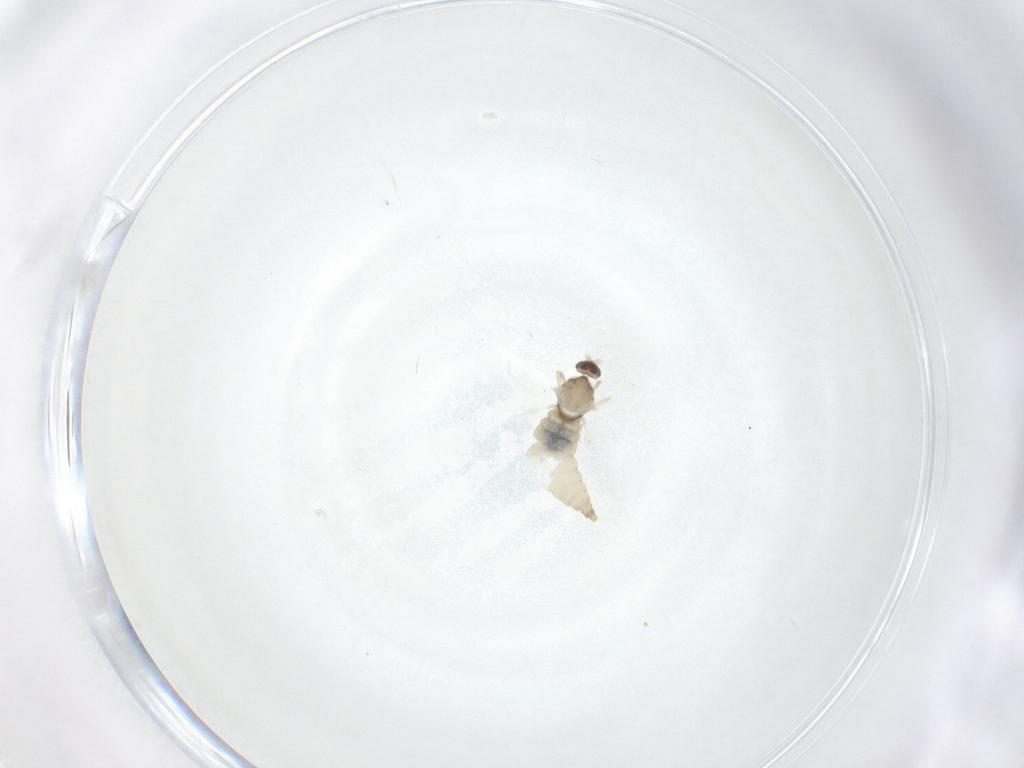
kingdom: Animalia
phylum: Arthropoda
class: Insecta
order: Diptera
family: Cecidomyiidae
